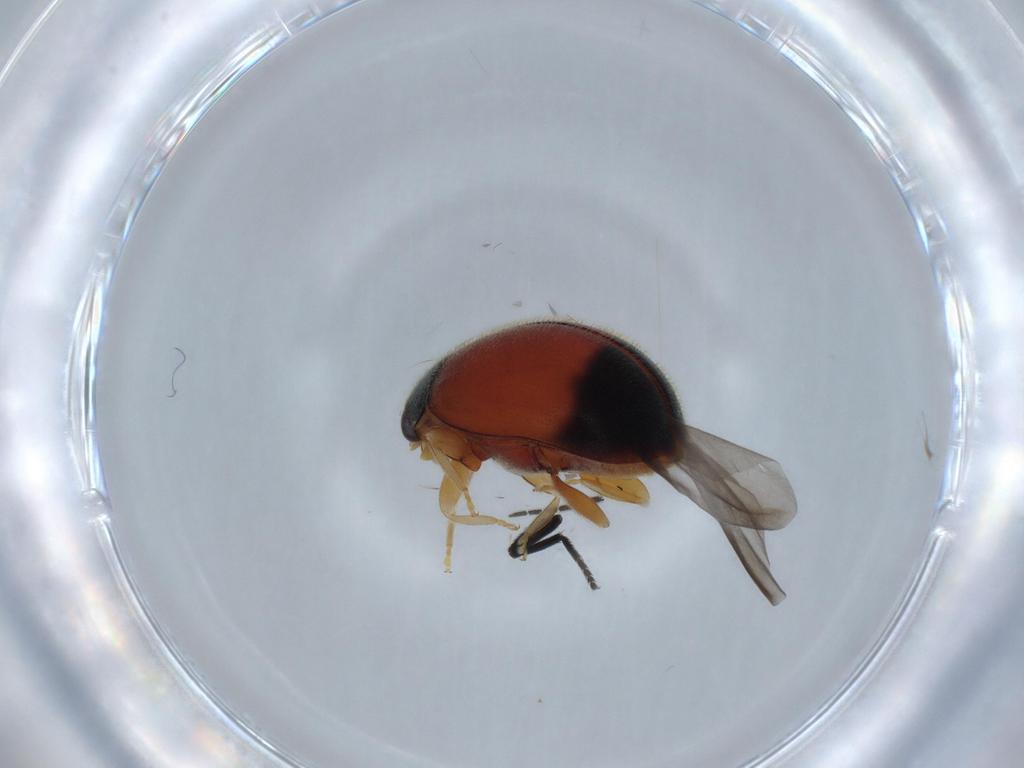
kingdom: Animalia
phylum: Arthropoda
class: Insecta
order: Coleoptera
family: Coccinellidae
